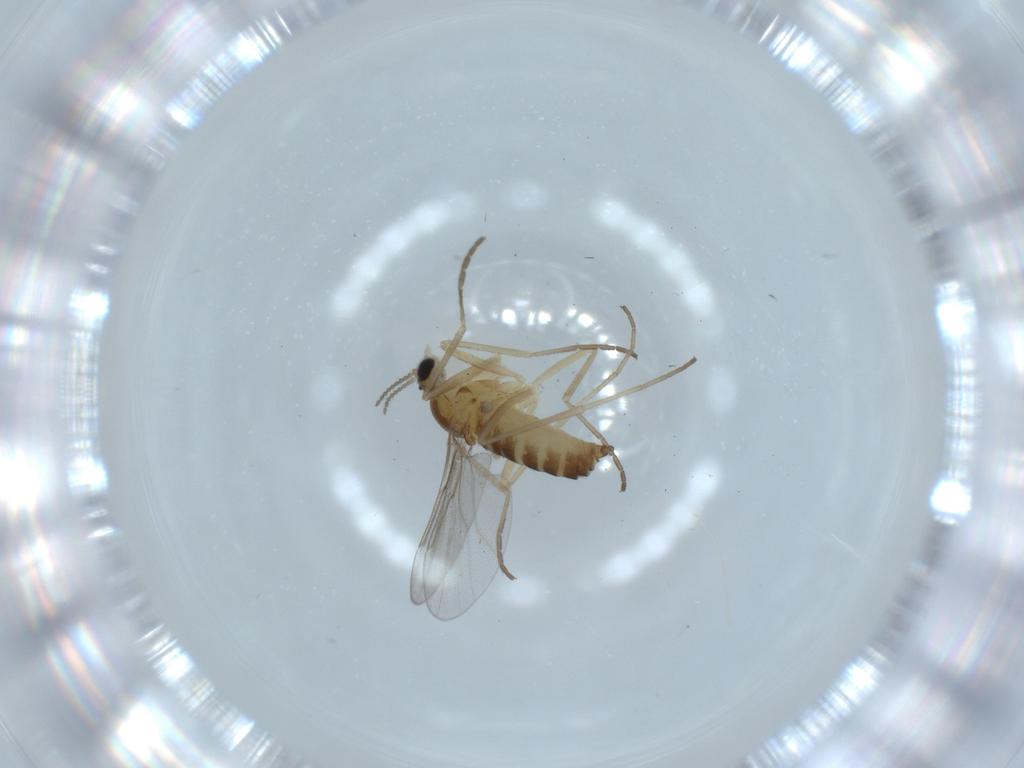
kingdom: Animalia
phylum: Arthropoda
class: Insecta
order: Diptera
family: Cecidomyiidae
